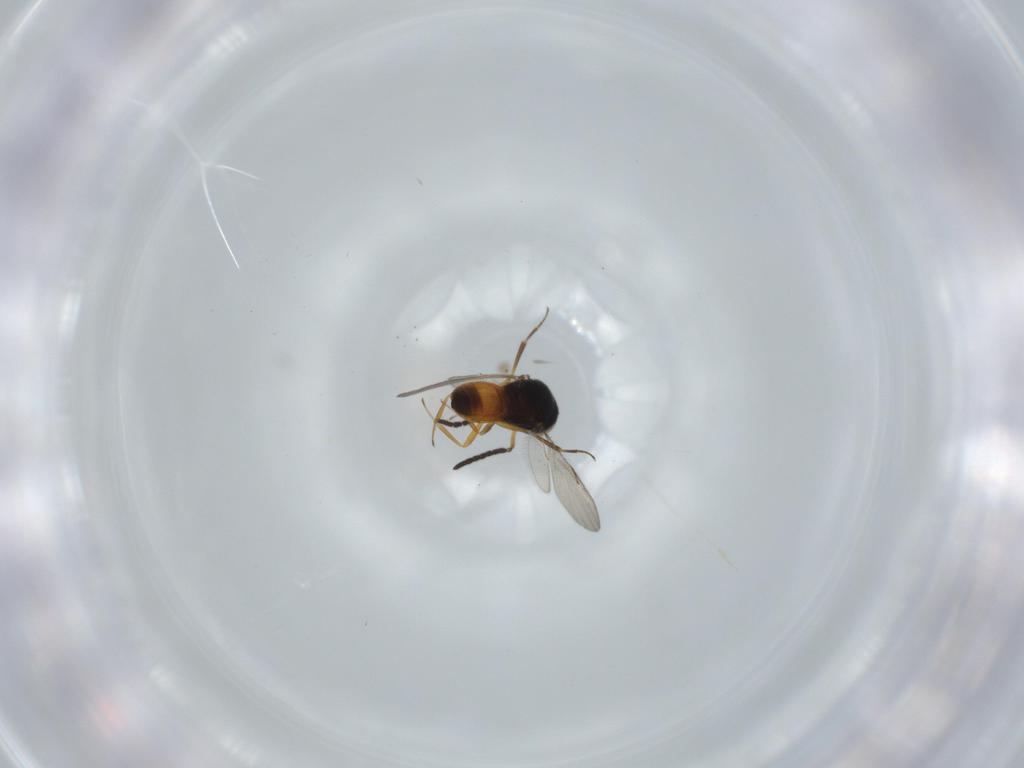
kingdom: Animalia
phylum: Arthropoda
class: Insecta
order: Hymenoptera
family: Scelionidae
